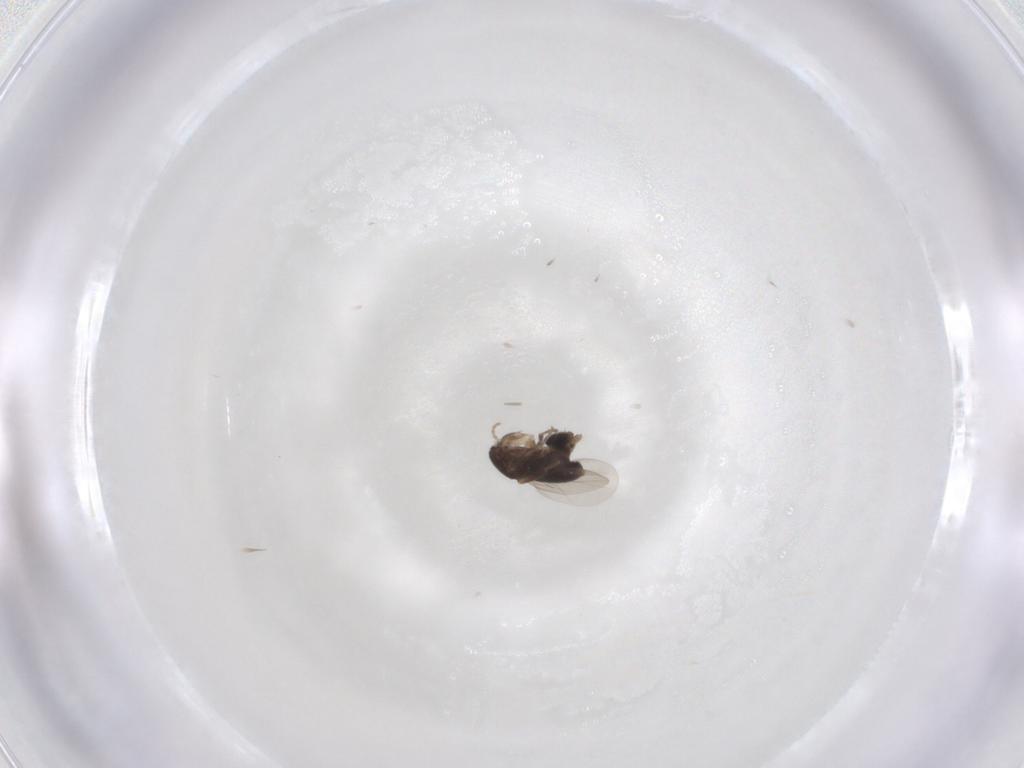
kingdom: Animalia
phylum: Arthropoda
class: Insecta
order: Diptera
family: Phoridae
